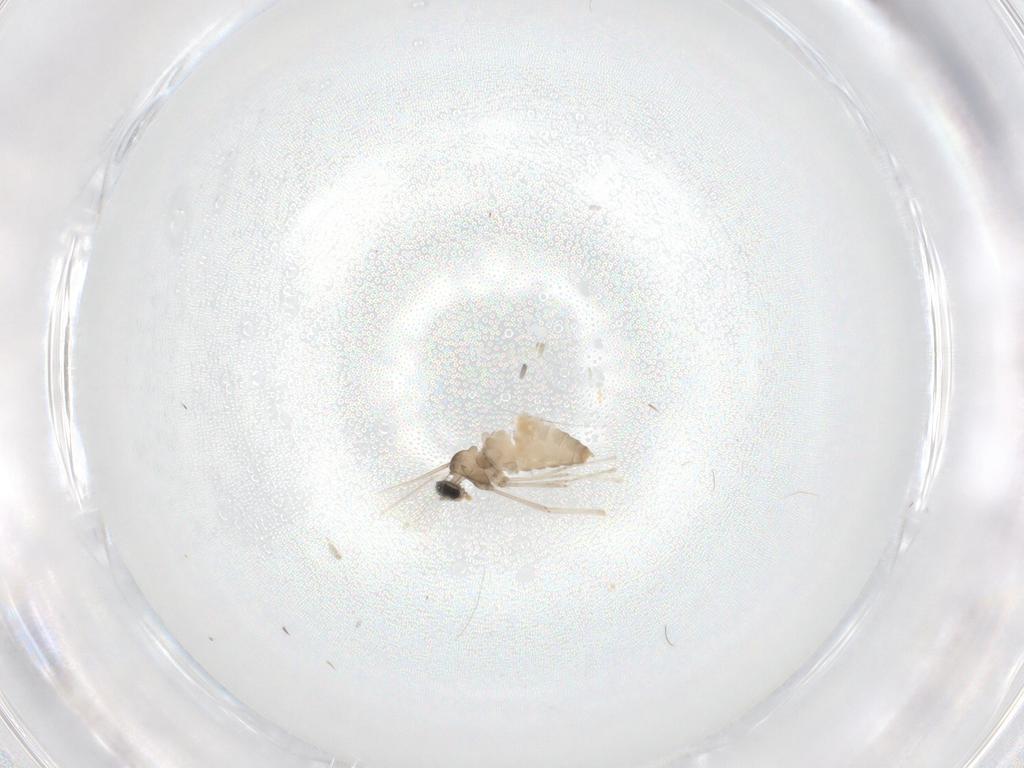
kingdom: Animalia
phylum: Arthropoda
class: Insecta
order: Diptera
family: Cecidomyiidae
